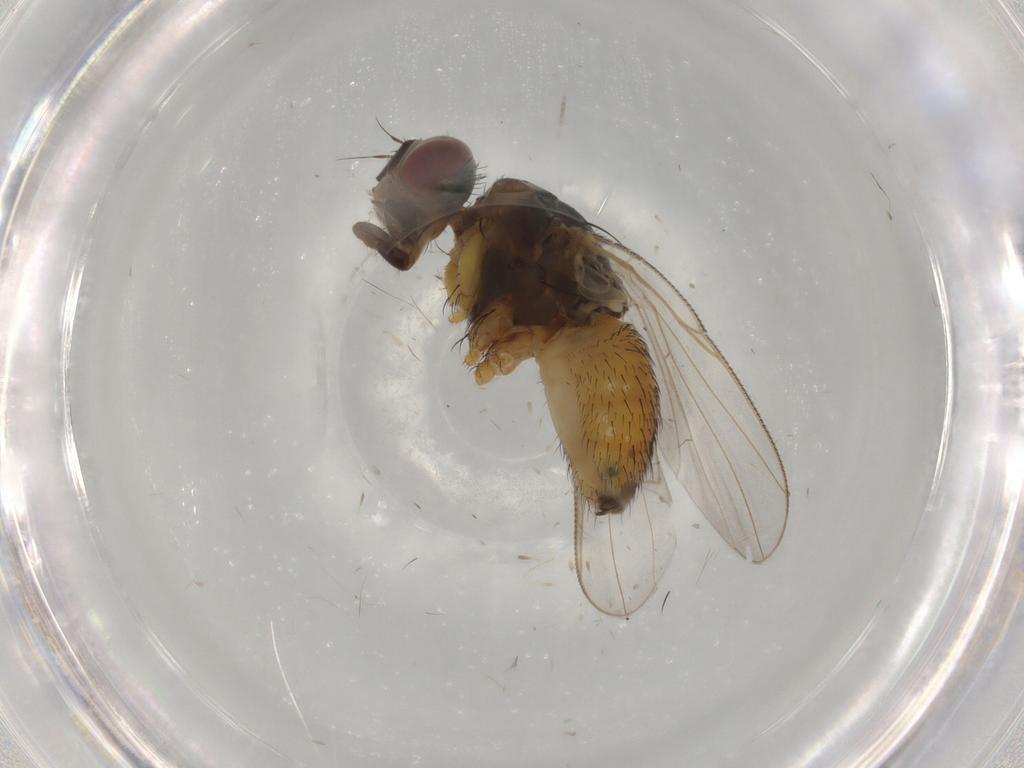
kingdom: Animalia
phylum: Arthropoda
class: Insecta
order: Diptera
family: Muscidae
